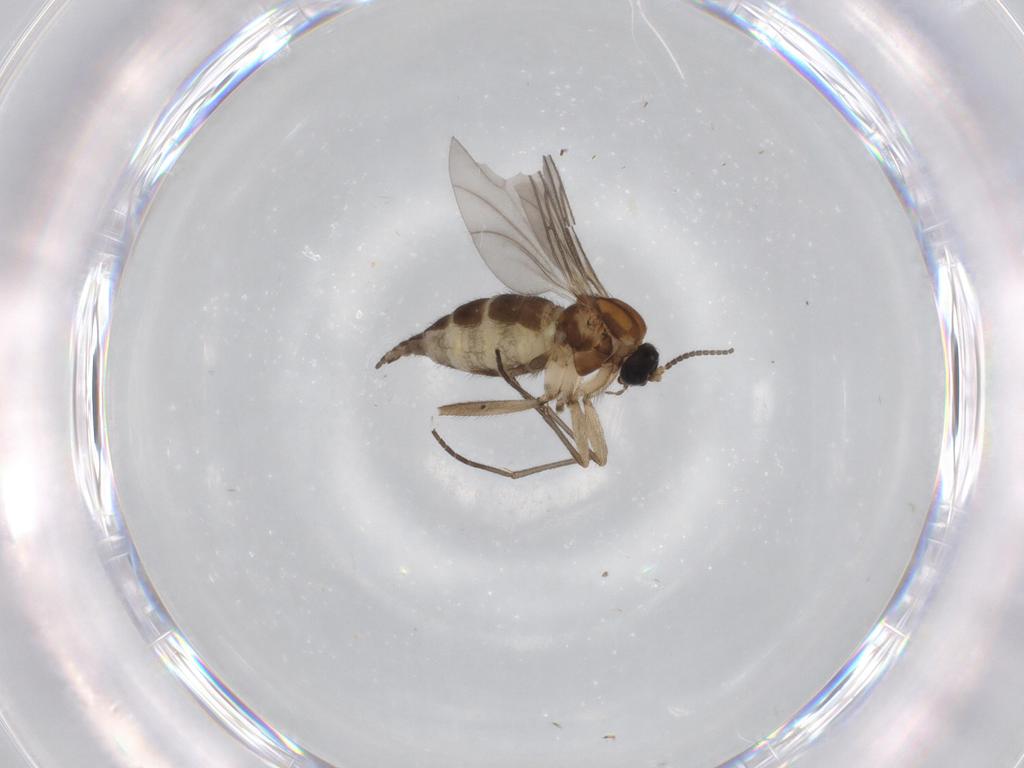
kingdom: Animalia
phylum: Arthropoda
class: Insecta
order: Diptera
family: Sciaridae
